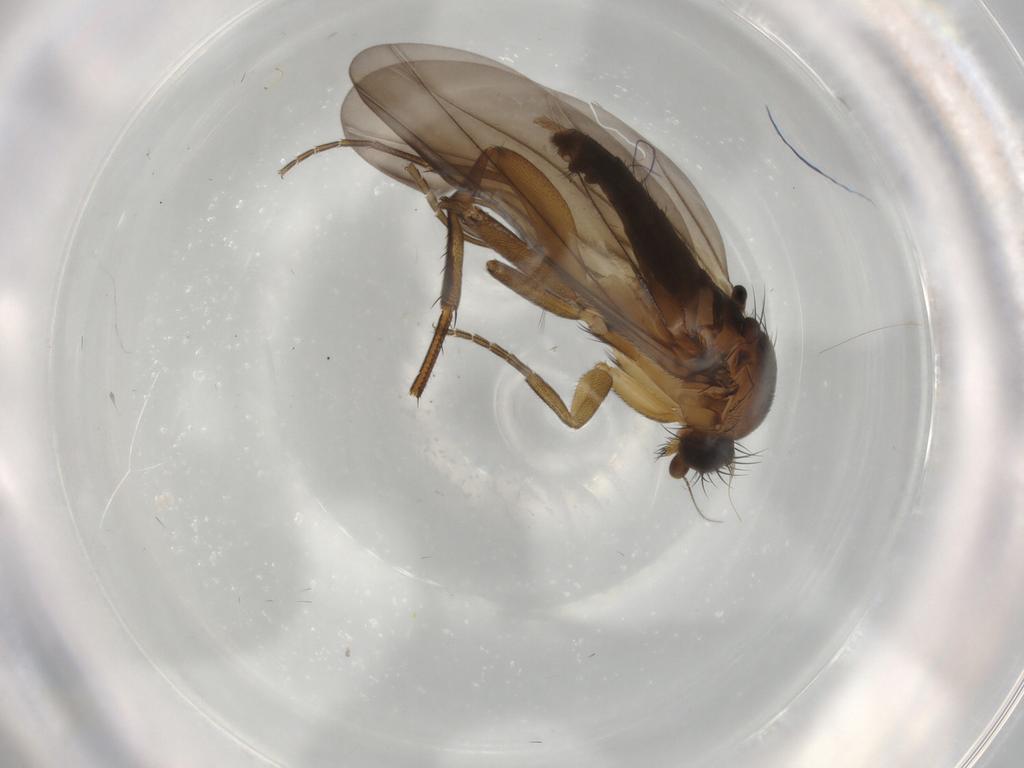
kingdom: Animalia
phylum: Arthropoda
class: Insecta
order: Diptera
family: Phoridae
